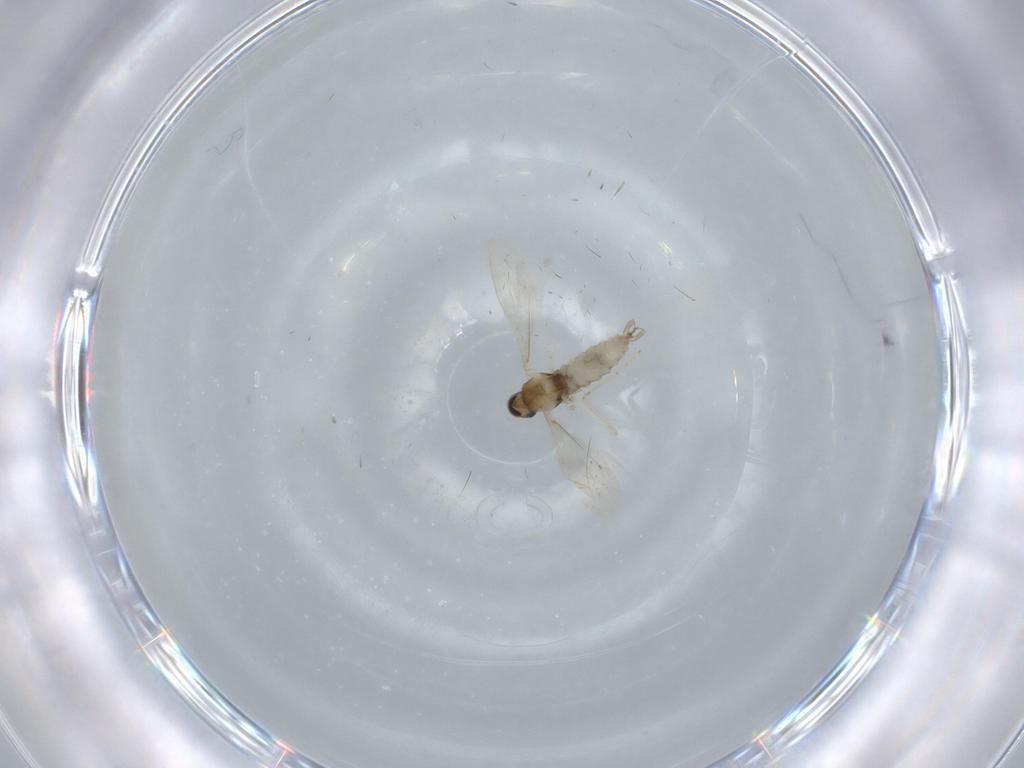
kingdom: Animalia
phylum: Arthropoda
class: Insecta
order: Diptera
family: Cecidomyiidae
